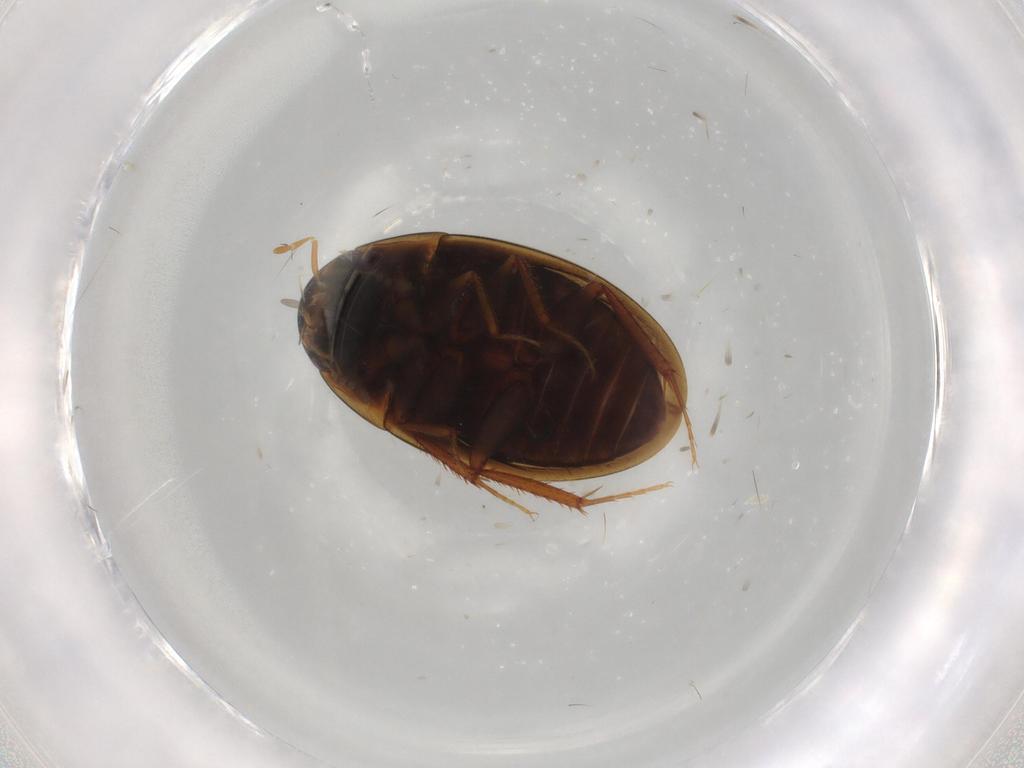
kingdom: Animalia
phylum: Arthropoda
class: Insecta
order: Coleoptera
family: Hydrophilidae
